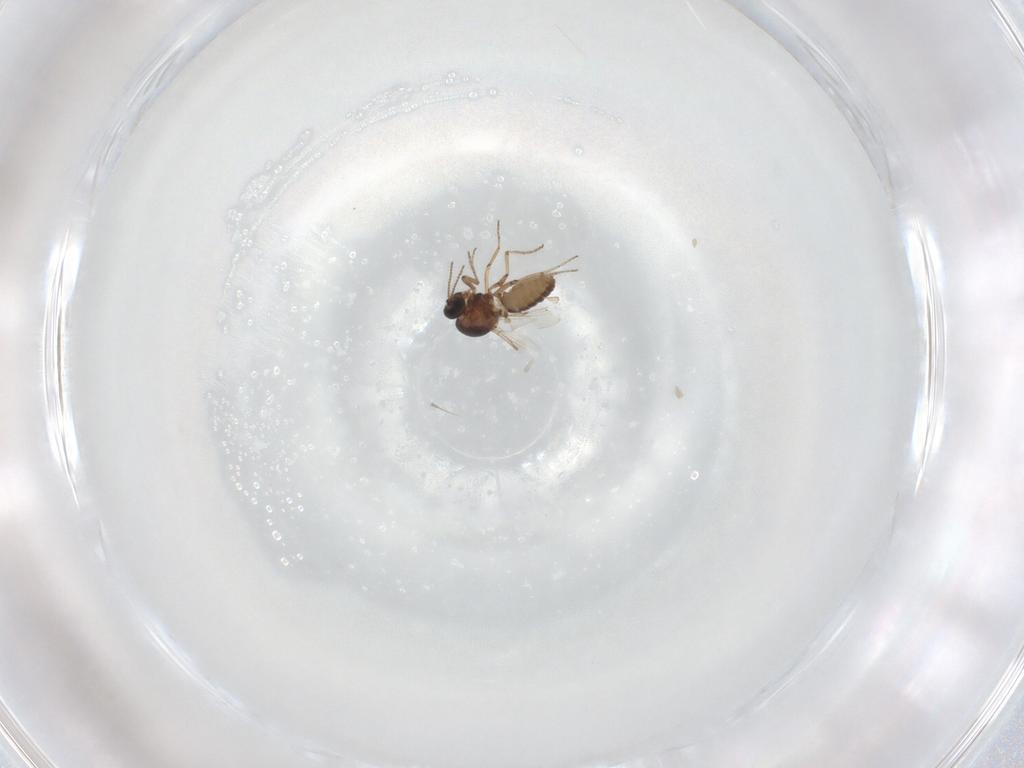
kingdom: Animalia
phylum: Arthropoda
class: Insecta
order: Diptera
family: Ceratopogonidae
